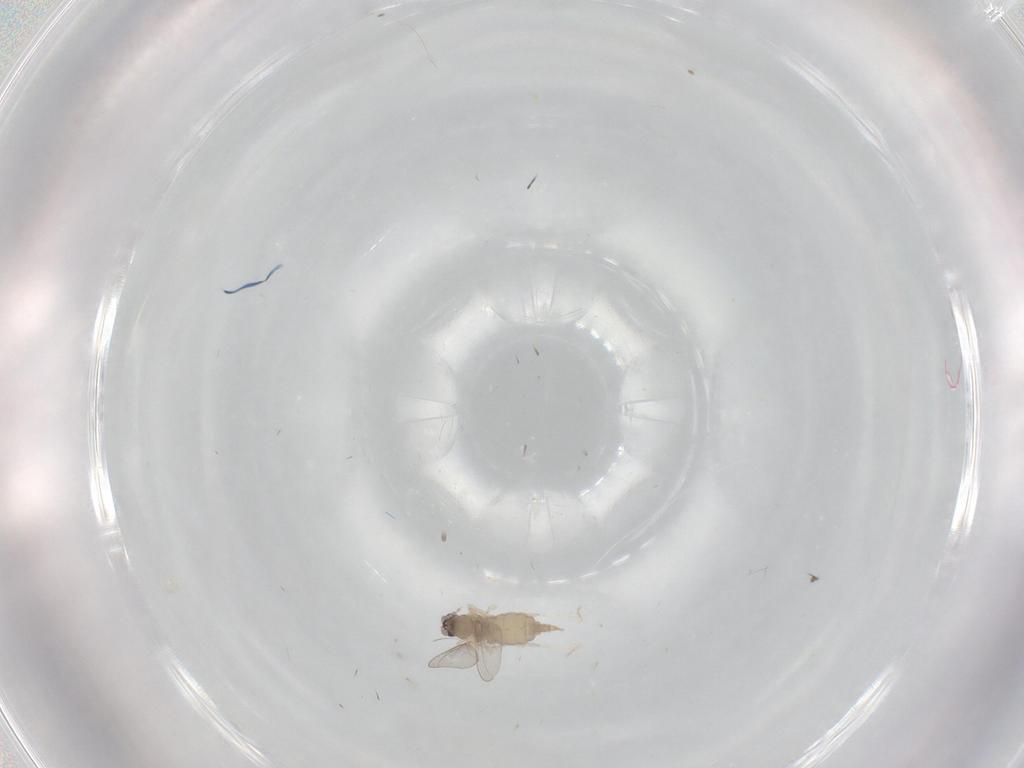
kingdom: Animalia
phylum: Arthropoda
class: Insecta
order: Diptera
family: Cecidomyiidae
